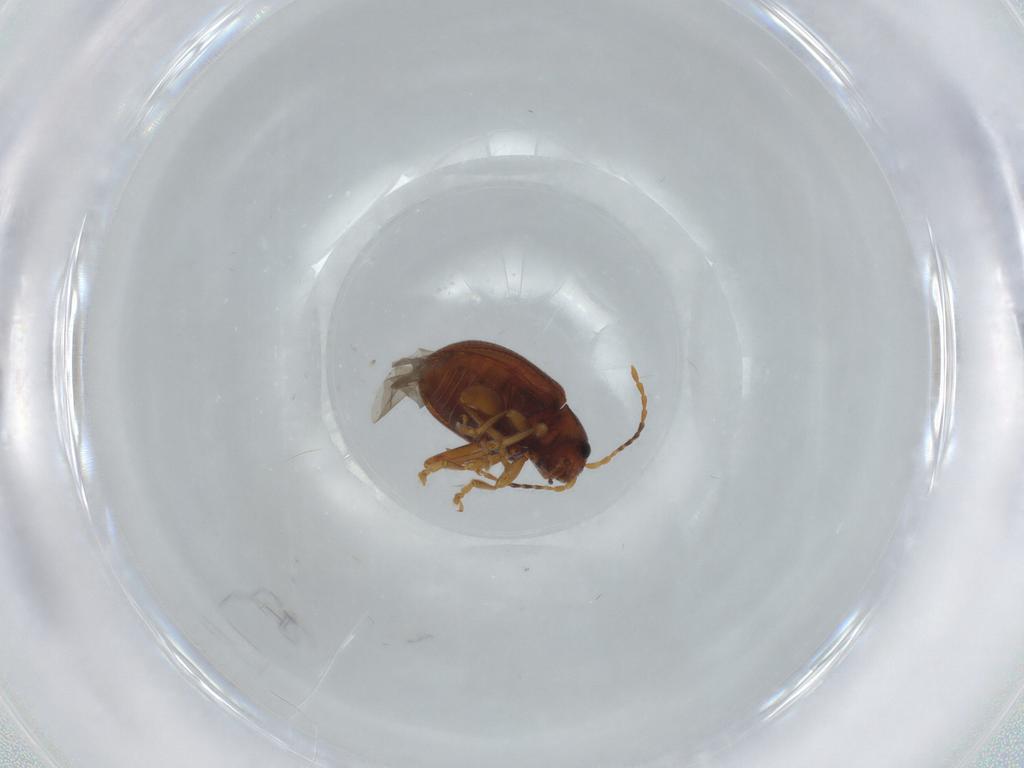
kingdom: Animalia
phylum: Arthropoda
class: Insecta
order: Coleoptera
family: Chrysomelidae
